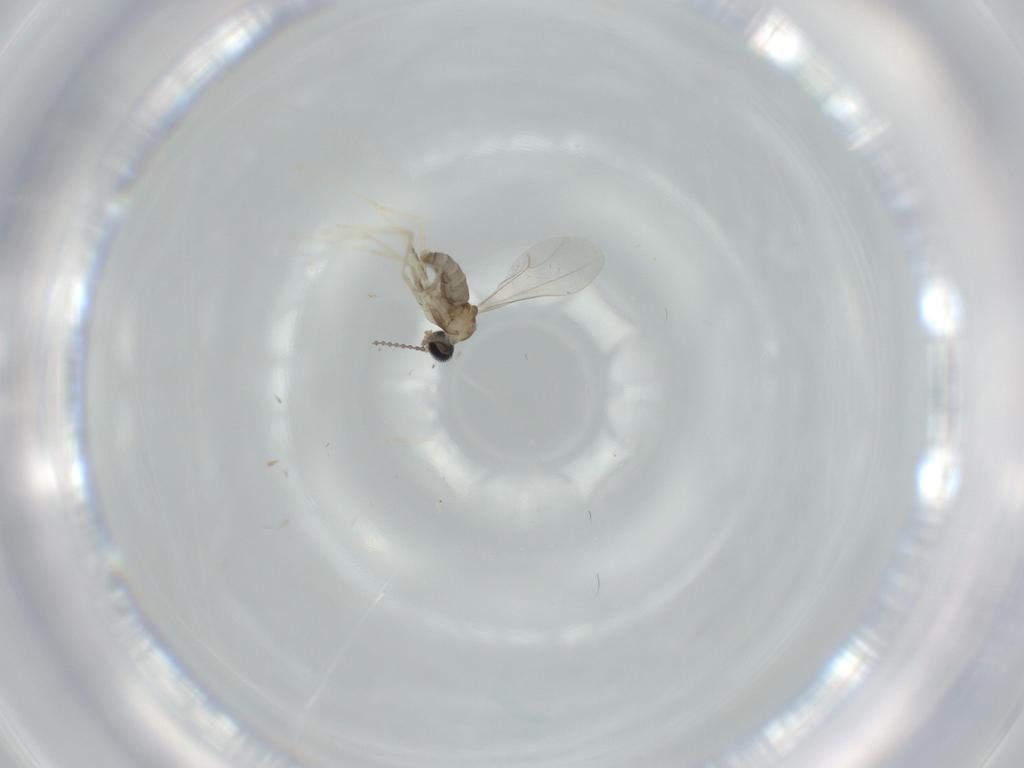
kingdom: Animalia
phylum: Arthropoda
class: Insecta
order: Diptera
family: Cecidomyiidae
